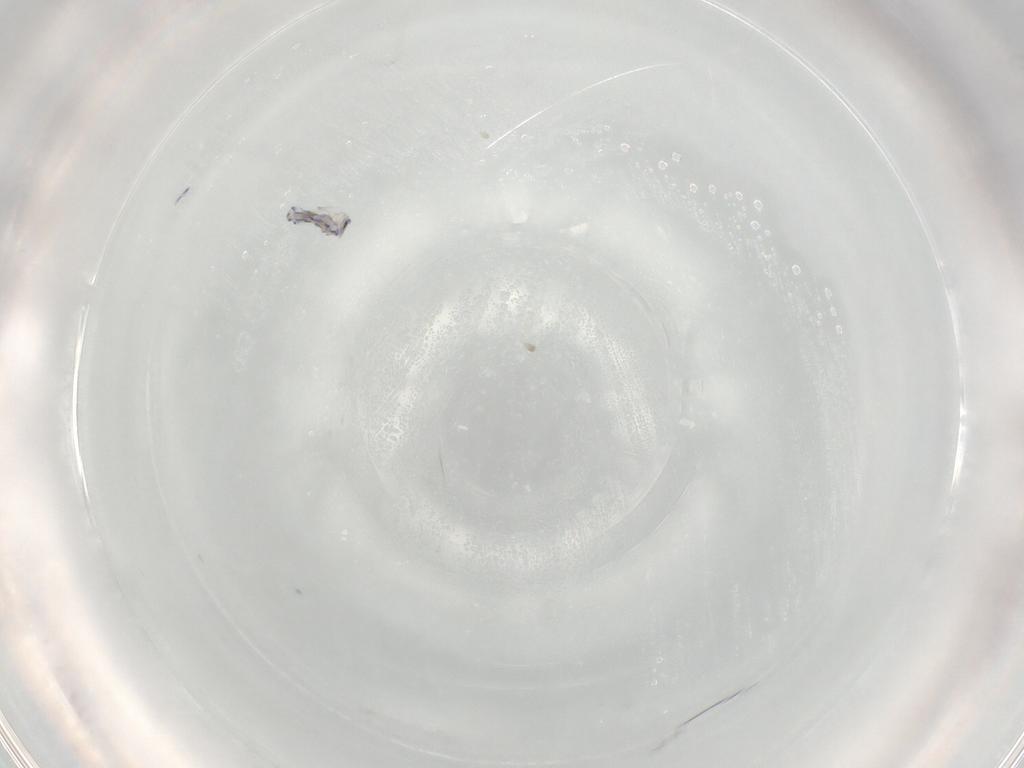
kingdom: Animalia
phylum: Arthropoda
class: Collembola
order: Entomobryomorpha
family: Entomobryidae
